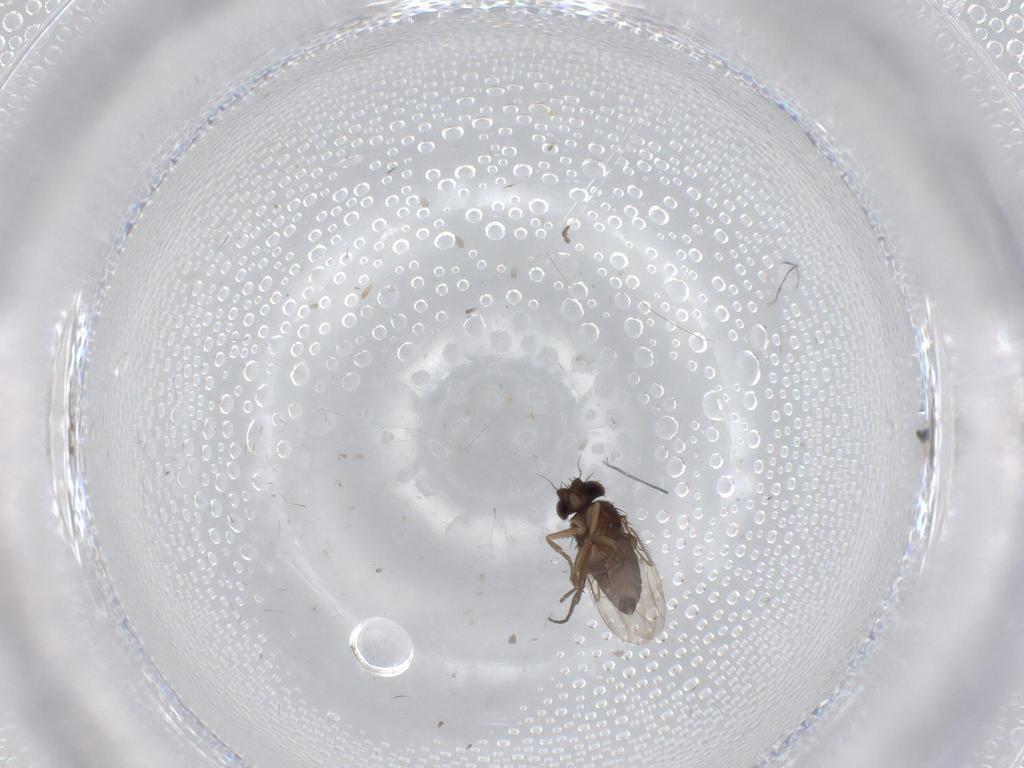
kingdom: Animalia
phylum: Arthropoda
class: Insecta
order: Diptera
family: Phoridae
